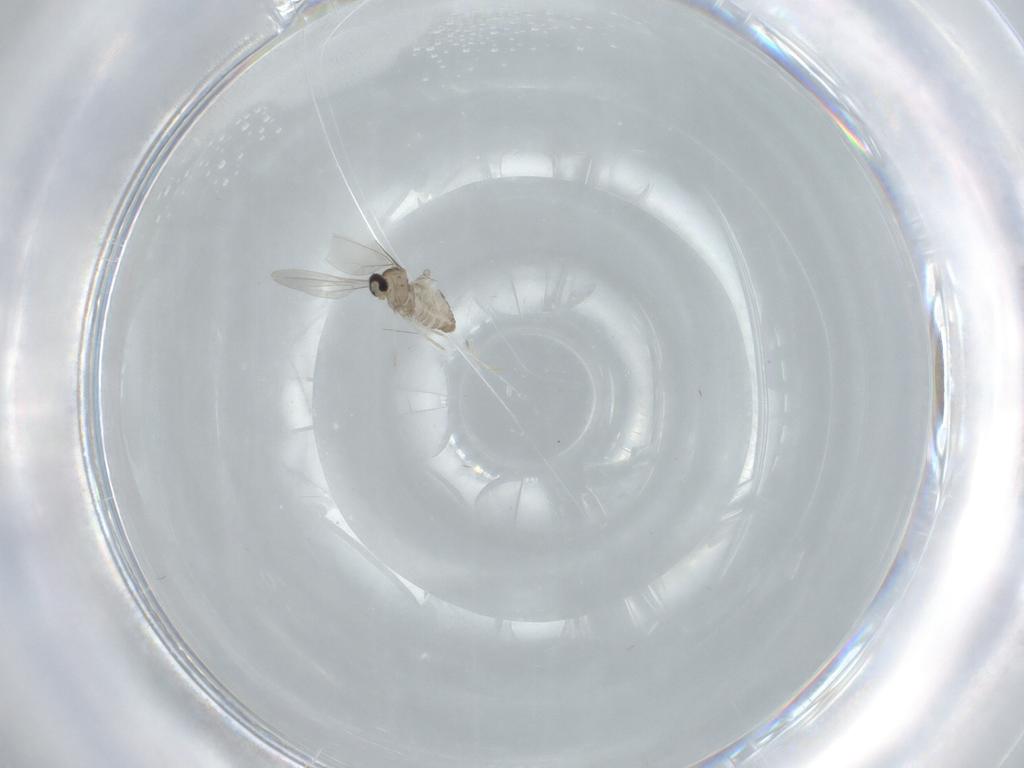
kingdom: Animalia
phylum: Arthropoda
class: Insecta
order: Diptera
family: Cecidomyiidae
